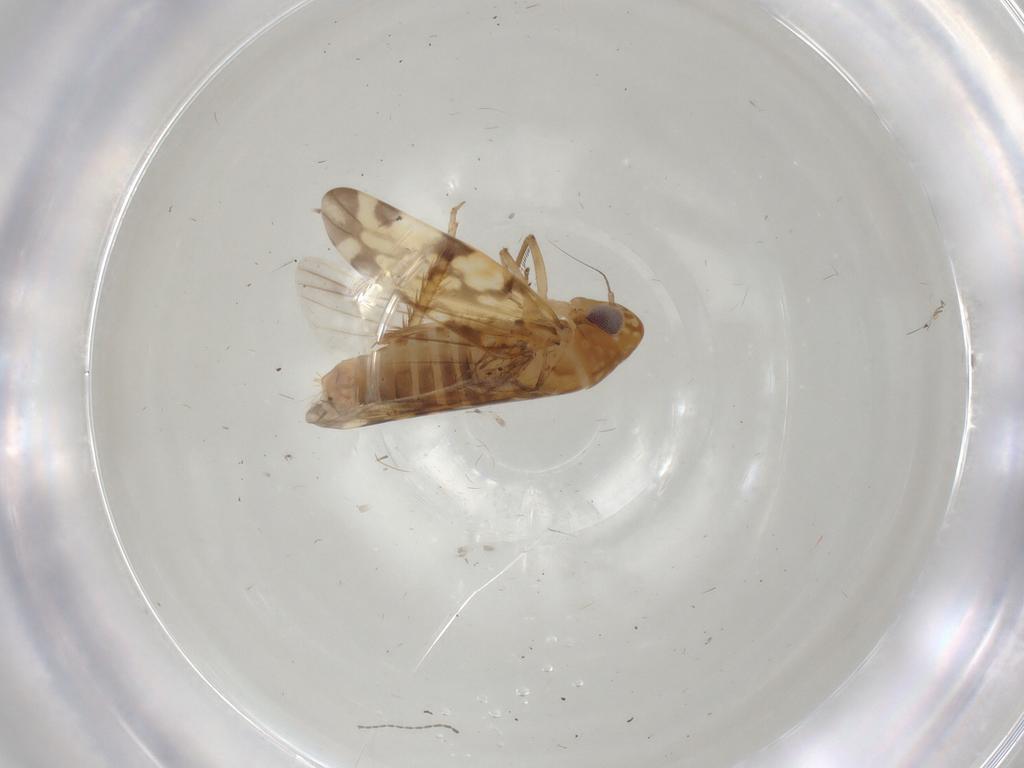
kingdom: Animalia
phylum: Arthropoda
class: Insecta
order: Hemiptera
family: Cicadellidae
